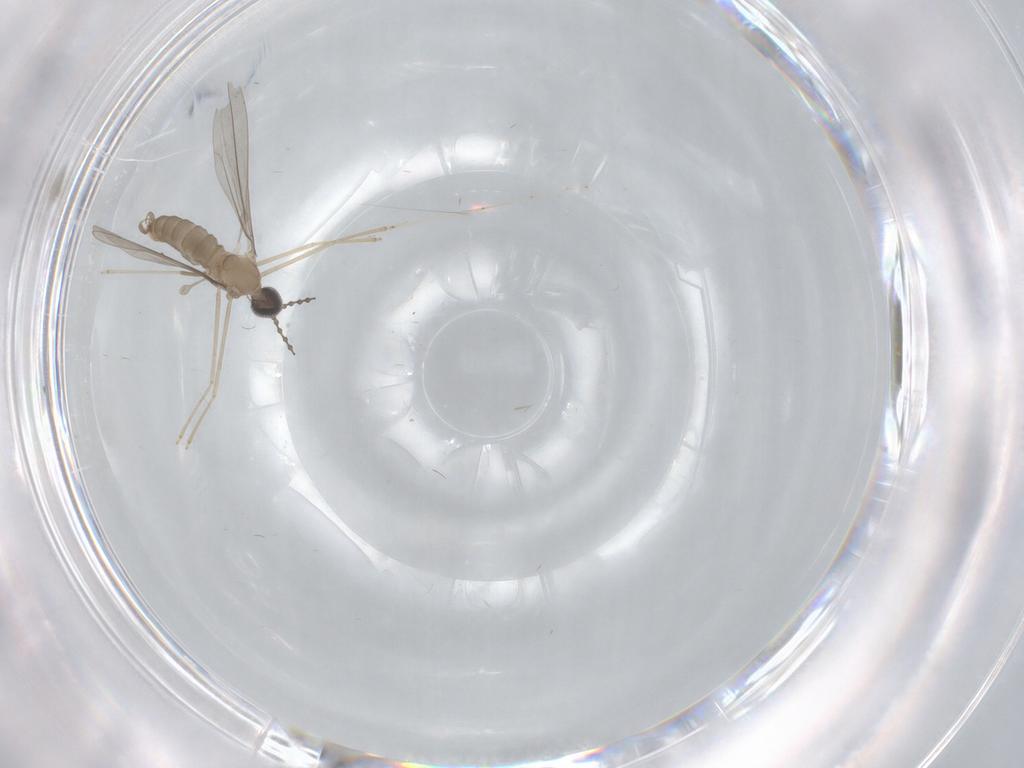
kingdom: Animalia
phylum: Arthropoda
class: Insecta
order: Diptera
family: Cecidomyiidae
